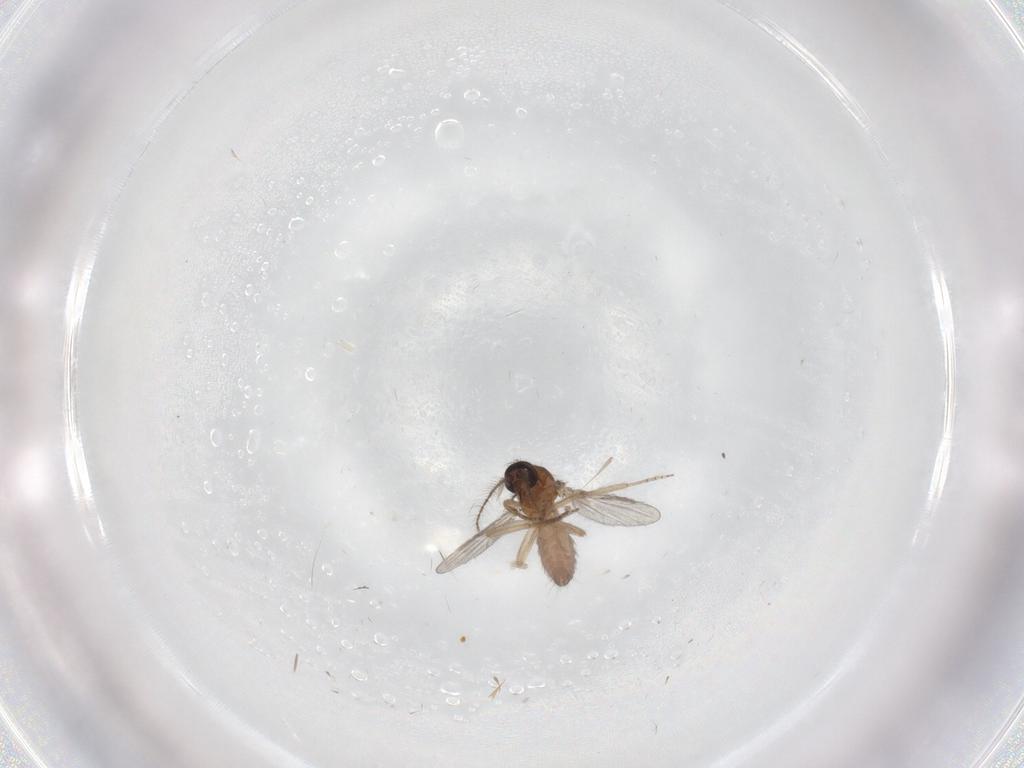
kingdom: Animalia
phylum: Arthropoda
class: Insecta
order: Diptera
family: Ceratopogonidae
